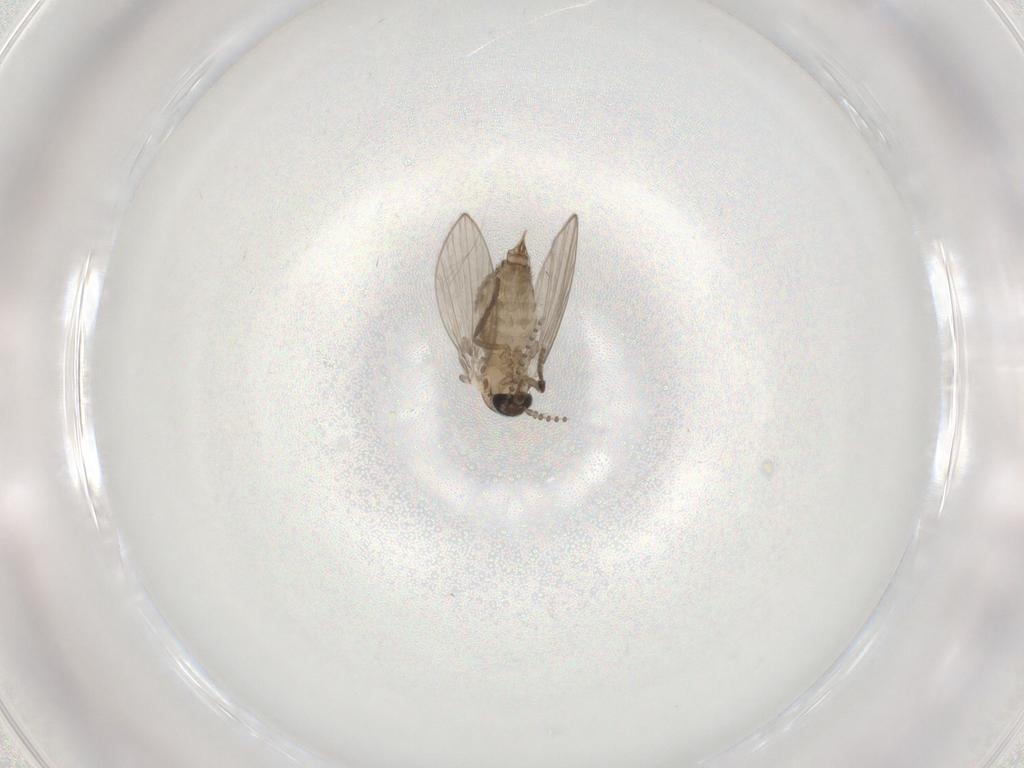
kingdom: Animalia
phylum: Arthropoda
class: Insecta
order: Diptera
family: Psychodidae
